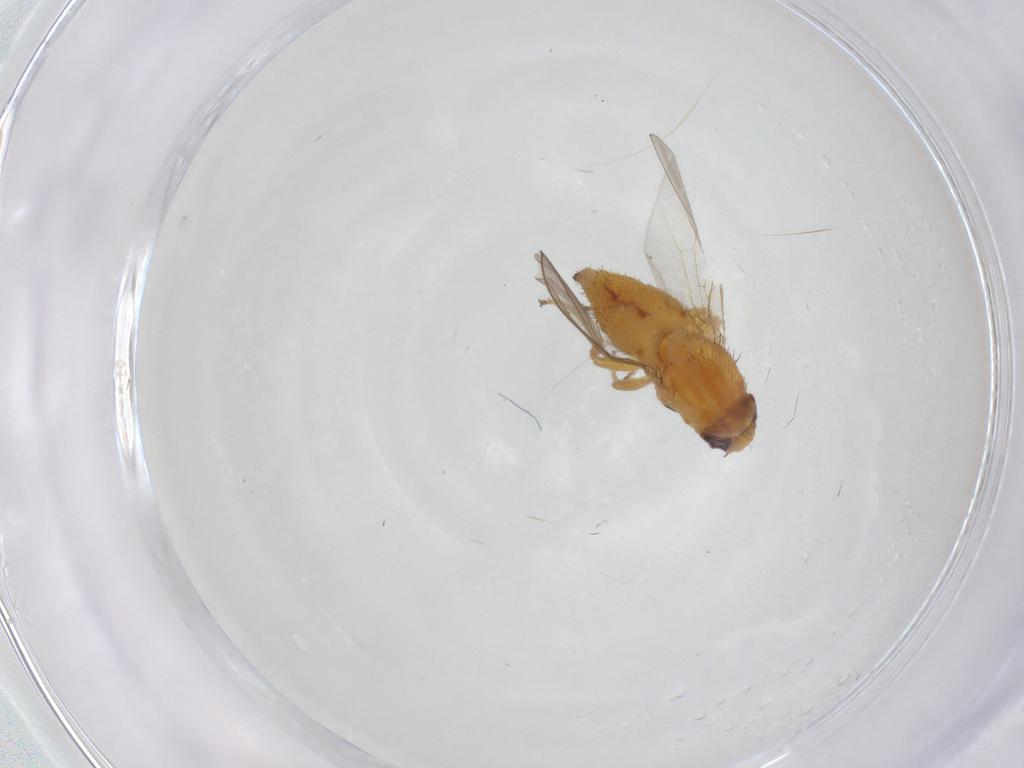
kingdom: Animalia
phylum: Arthropoda
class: Insecta
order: Diptera
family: Chloropidae
